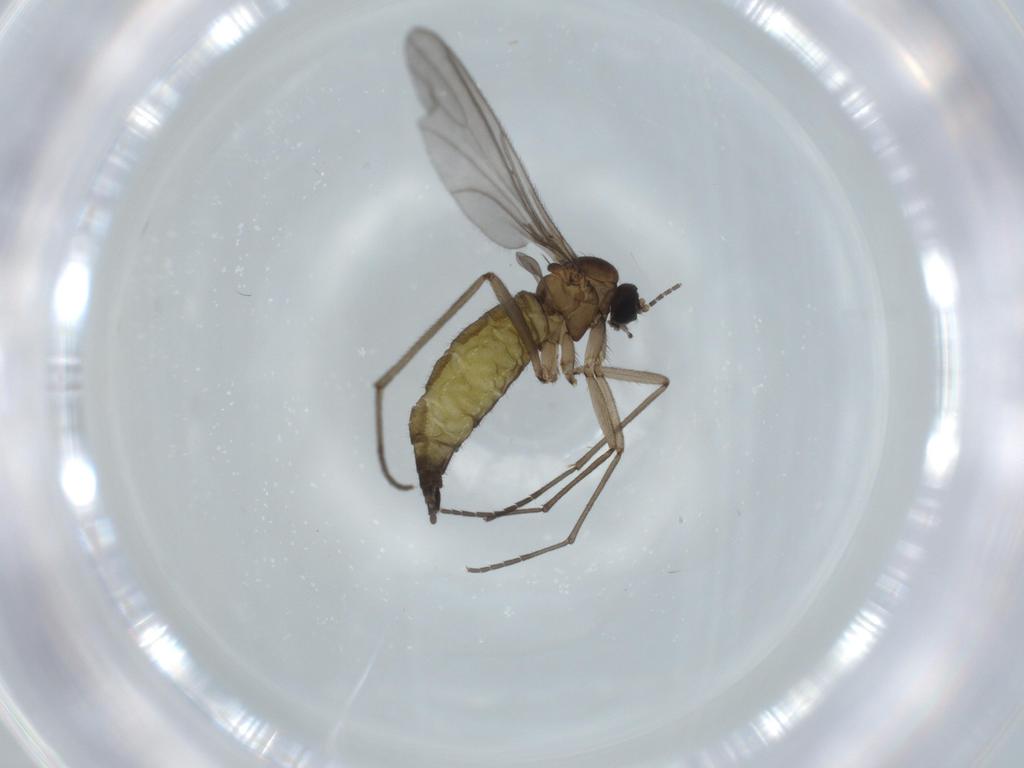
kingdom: Animalia
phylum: Arthropoda
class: Insecta
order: Diptera
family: Sciaridae
